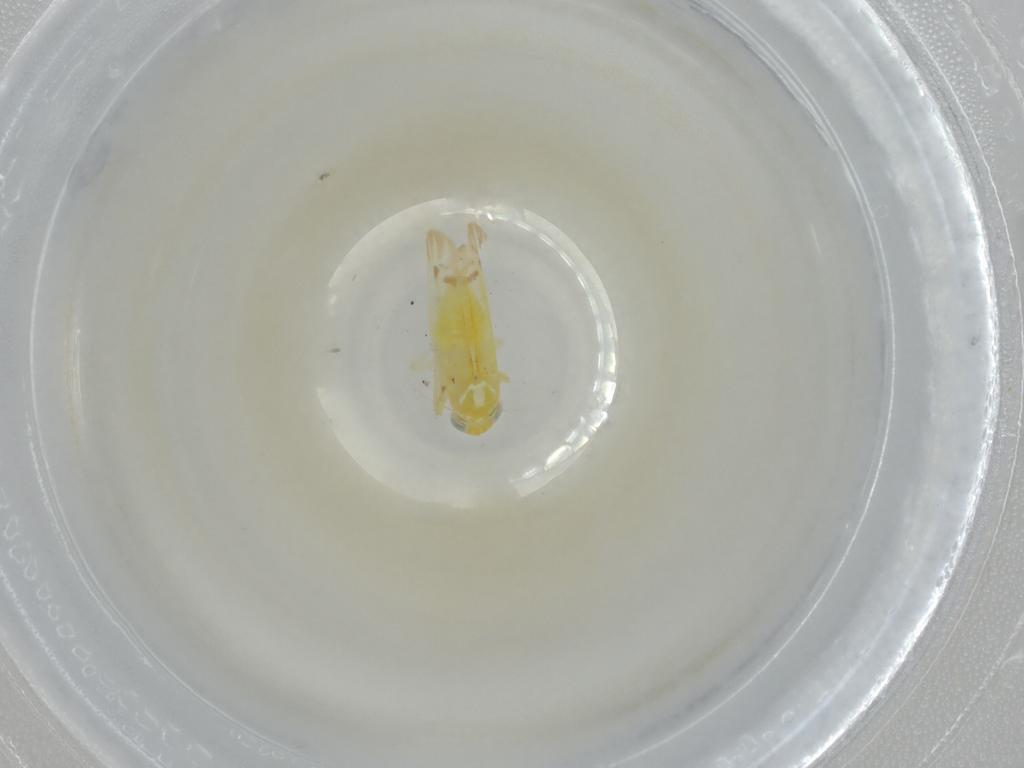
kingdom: Animalia
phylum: Arthropoda
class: Insecta
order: Hemiptera
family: Cicadellidae
